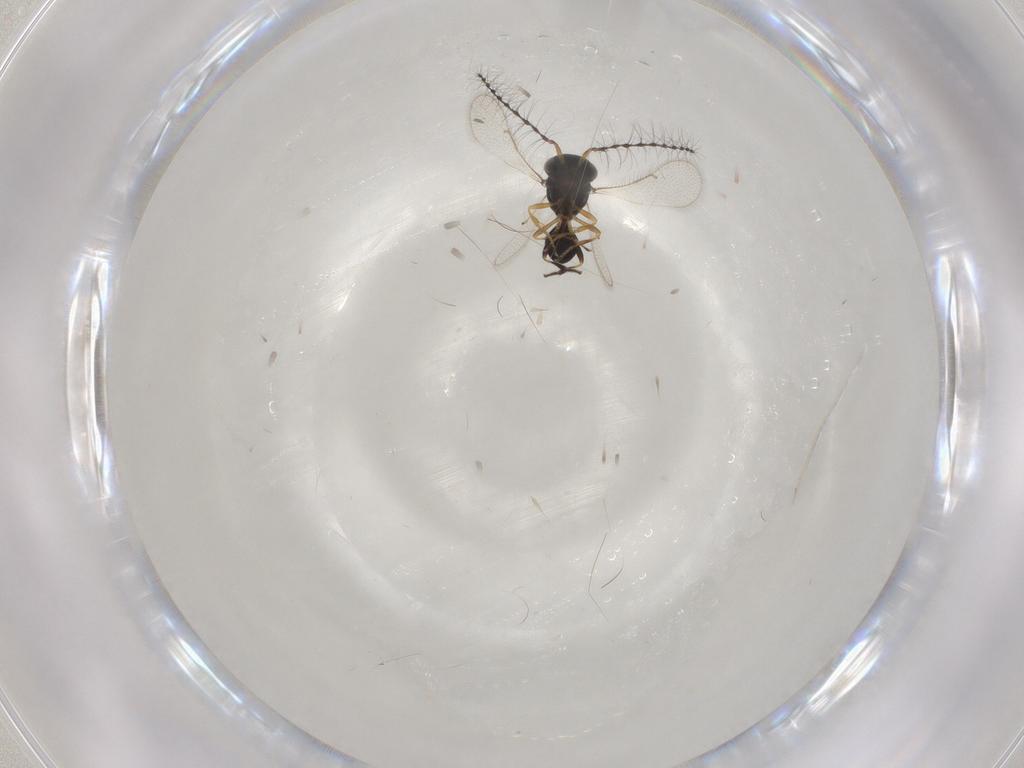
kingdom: Animalia
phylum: Arthropoda
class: Insecta
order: Hymenoptera
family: Scelionidae
